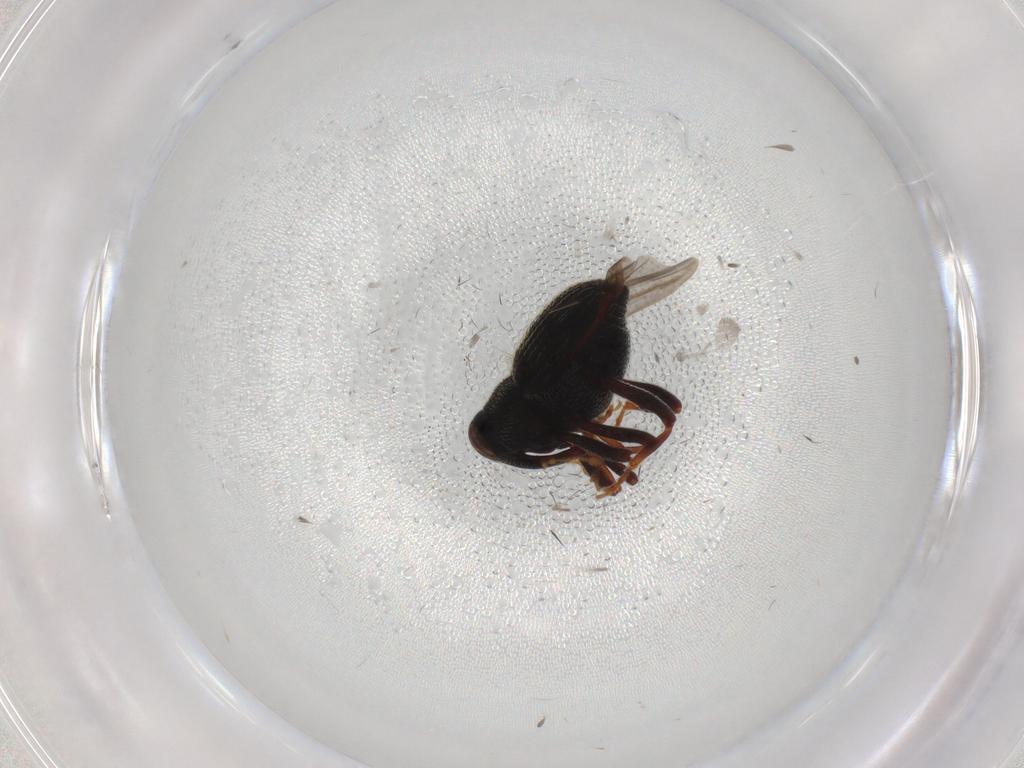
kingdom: Animalia
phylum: Arthropoda
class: Insecta
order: Coleoptera
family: Curculionidae
